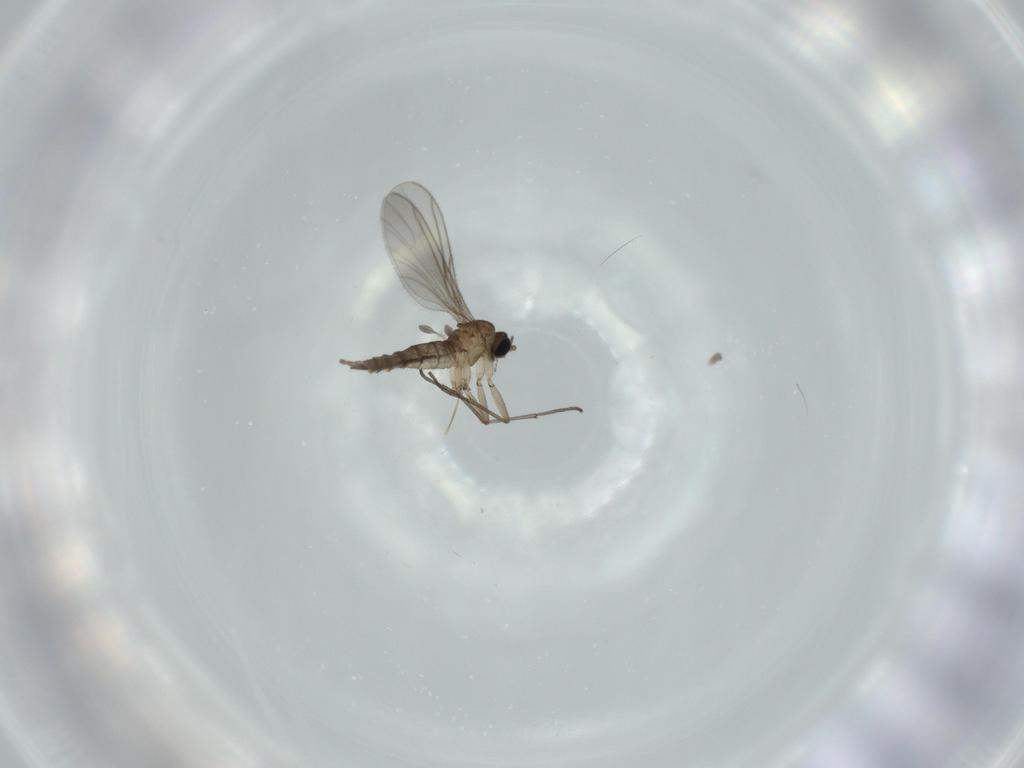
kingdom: Animalia
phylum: Arthropoda
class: Insecta
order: Diptera
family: Sciaridae
